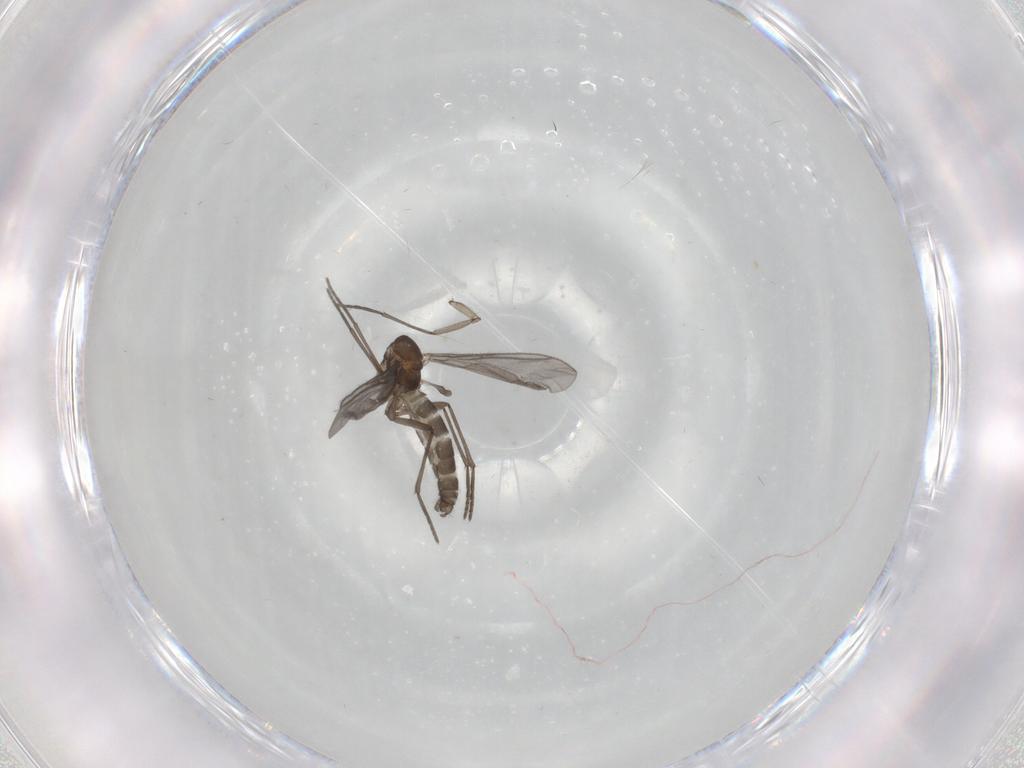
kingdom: Animalia
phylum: Arthropoda
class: Insecta
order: Diptera
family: Cecidomyiidae
